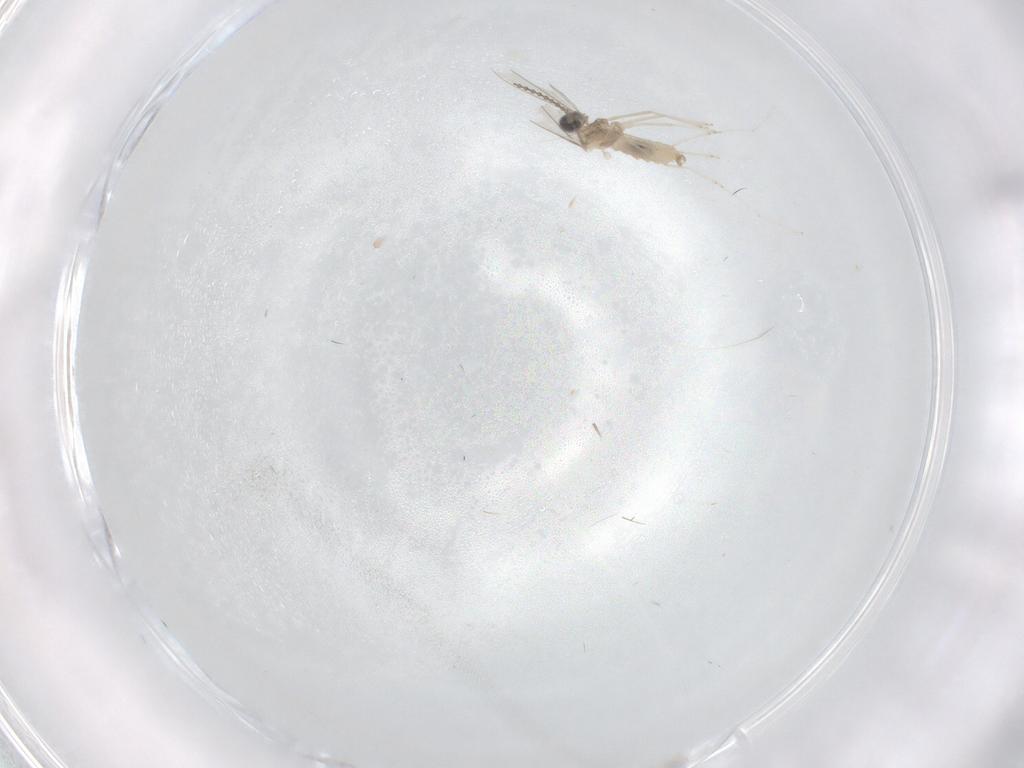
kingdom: Animalia
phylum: Arthropoda
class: Insecta
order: Diptera
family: Cecidomyiidae
